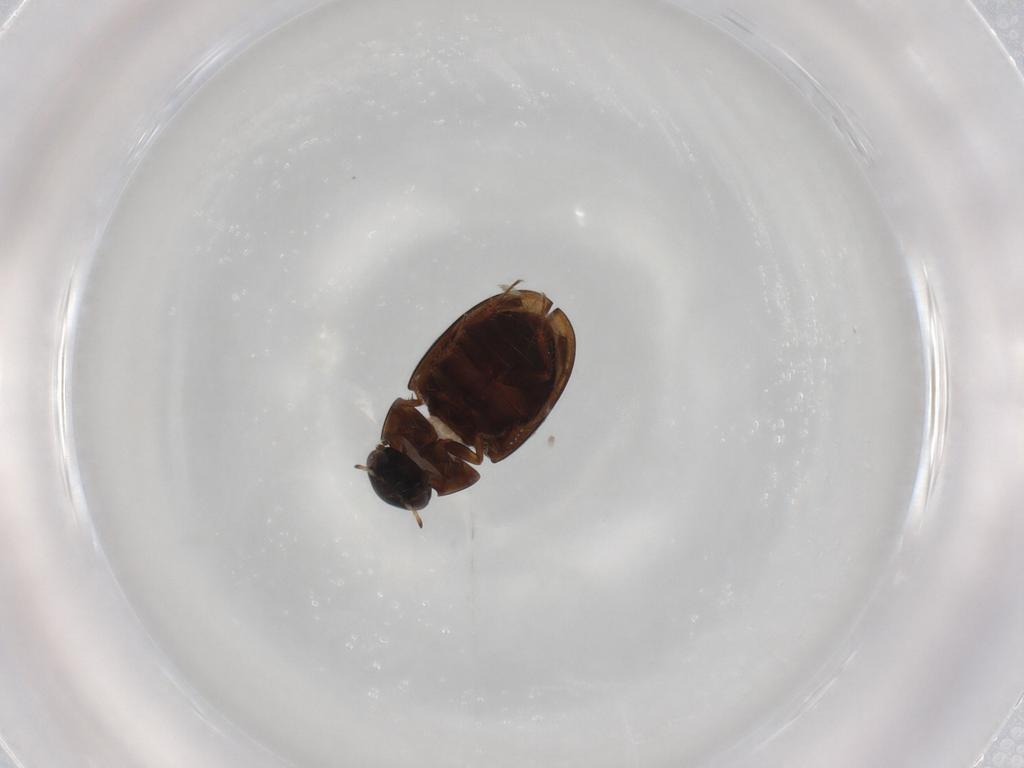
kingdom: Animalia
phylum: Arthropoda
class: Insecta
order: Coleoptera
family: Hydrophilidae
